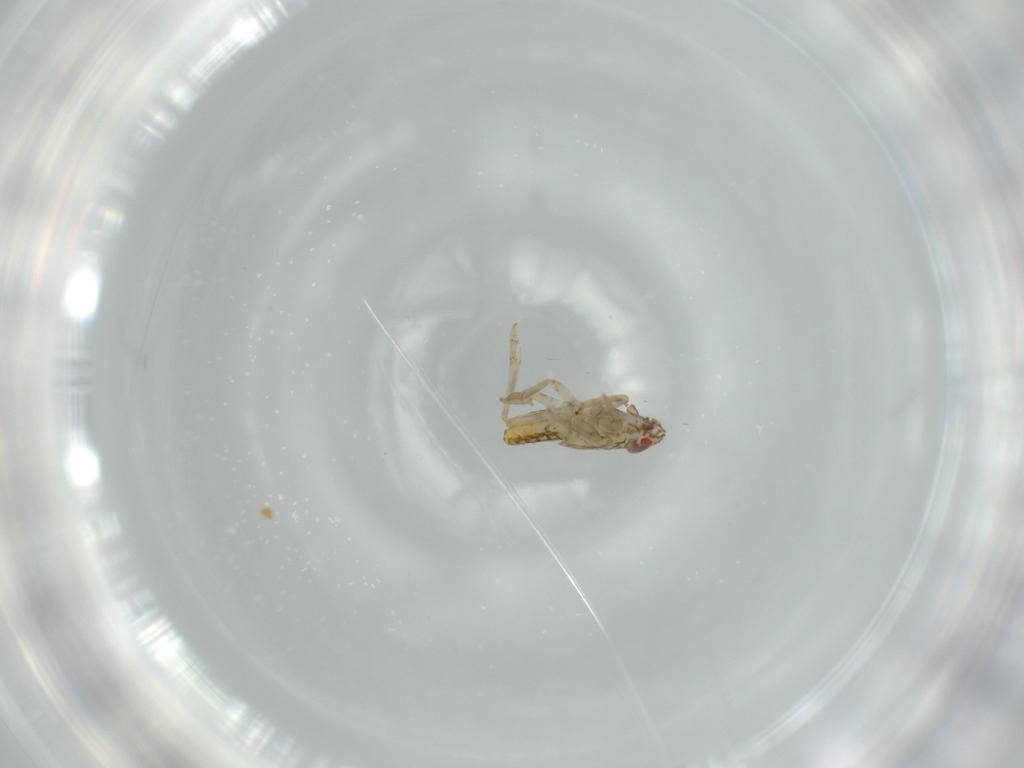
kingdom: Animalia
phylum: Arthropoda
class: Insecta
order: Hemiptera
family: Delphacidae
